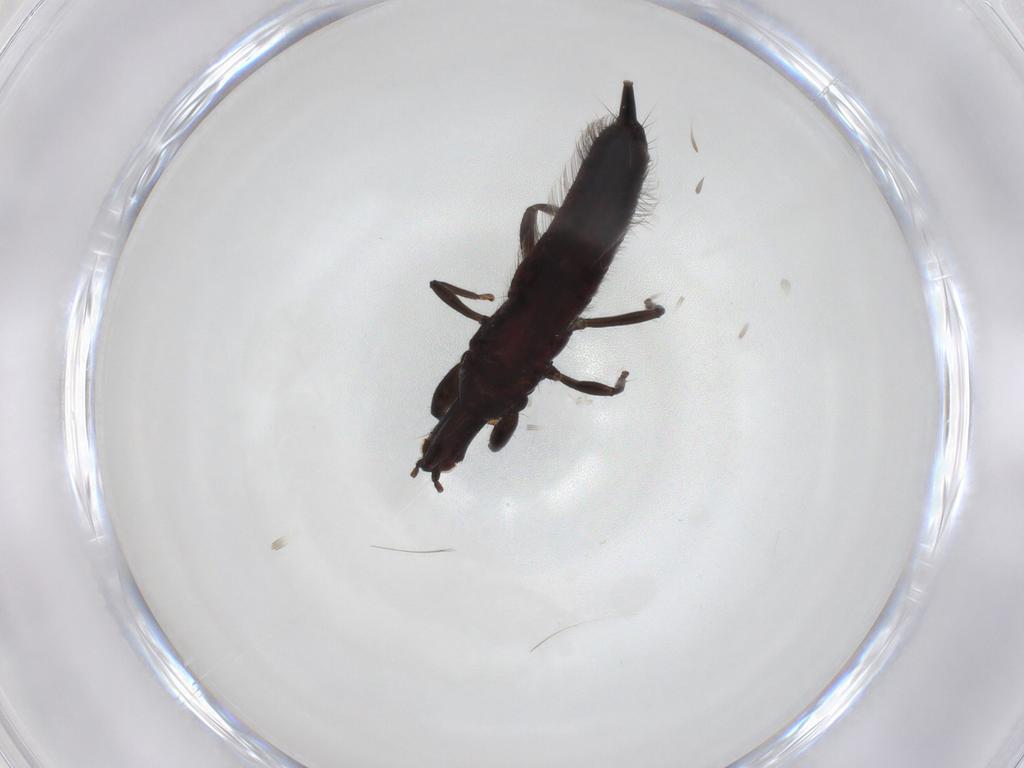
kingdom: Animalia
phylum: Arthropoda
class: Insecta
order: Thysanoptera
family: Phlaeothripidae
